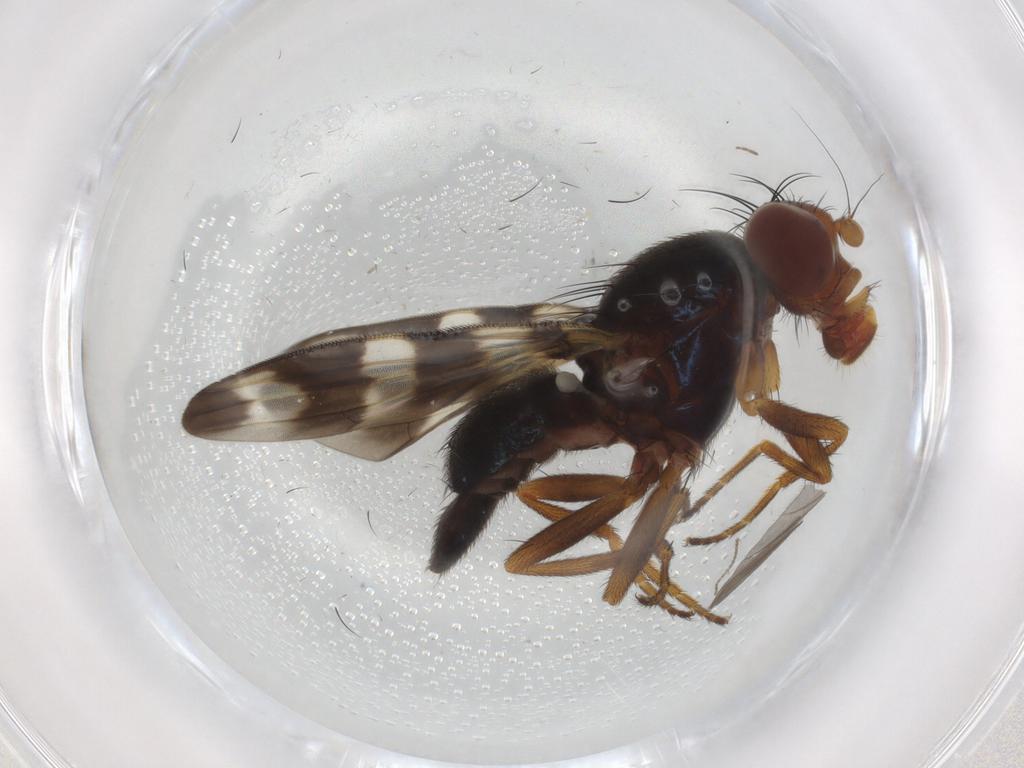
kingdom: Animalia
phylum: Arthropoda
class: Insecta
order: Diptera
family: Ulidiidae
